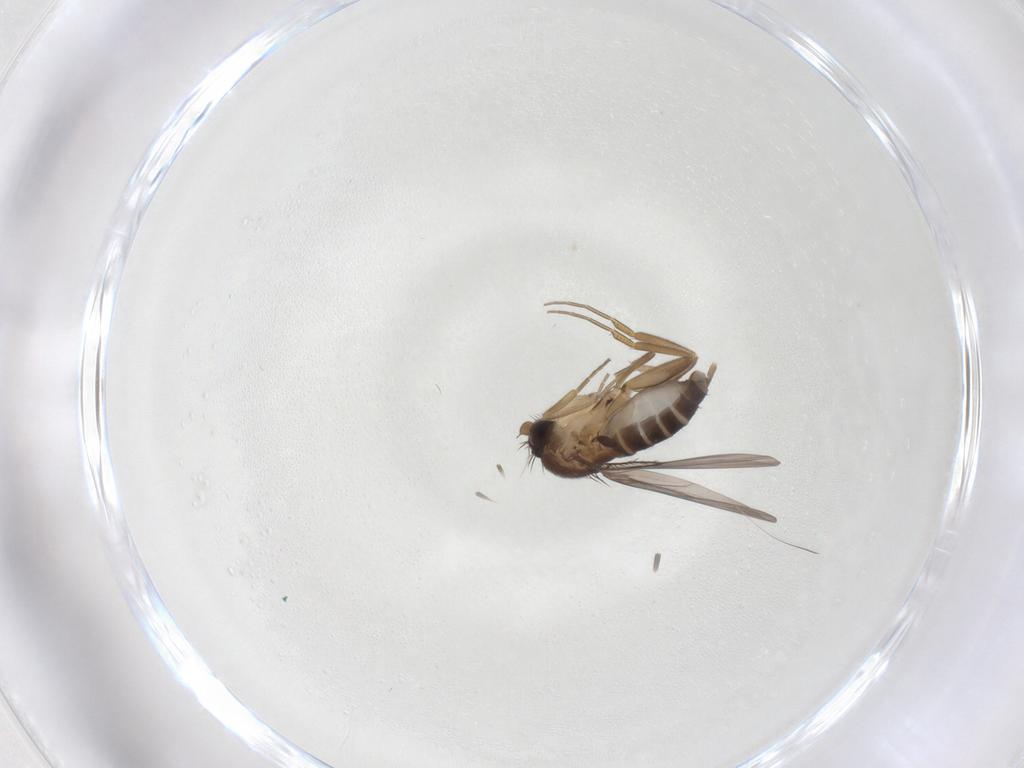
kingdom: Animalia
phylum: Arthropoda
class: Insecta
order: Diptera
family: Phoridae
